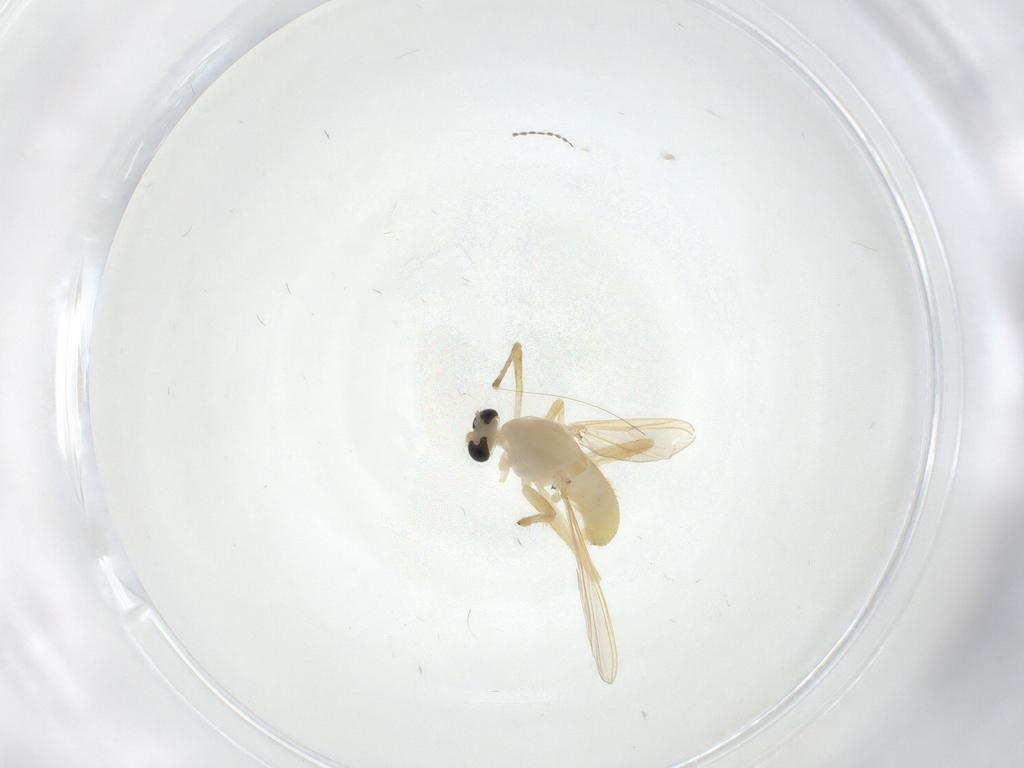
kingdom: Animalia
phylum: Arthropoda
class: Insecta
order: Diptera
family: Chironomidae
